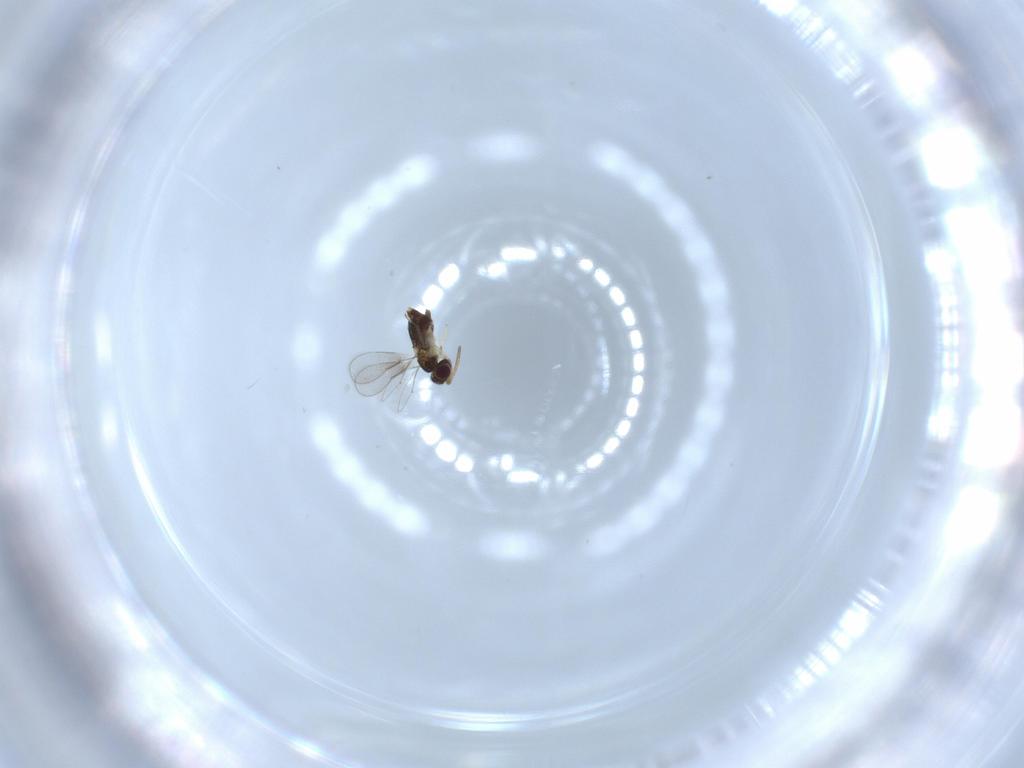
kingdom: Animalia
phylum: Arthropoda
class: Insecta
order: Hymenoptera
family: Aphelinidae
